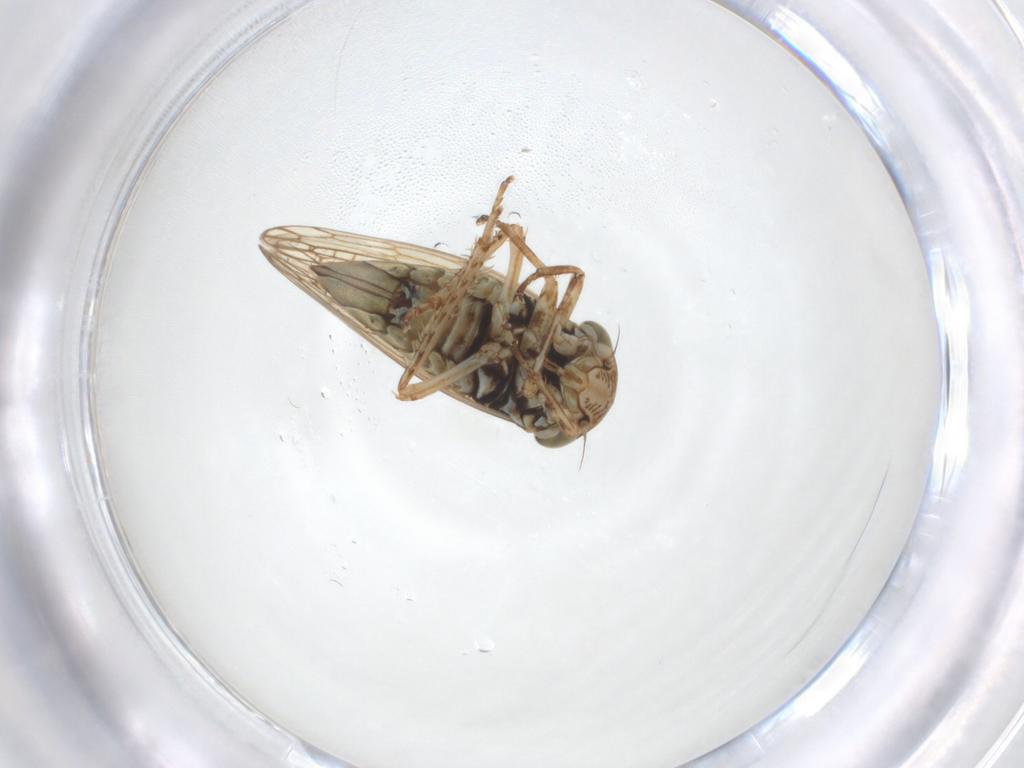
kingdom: Animalia
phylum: Arthropoda
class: Insecta
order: Hemiptera
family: Cicadellidae
